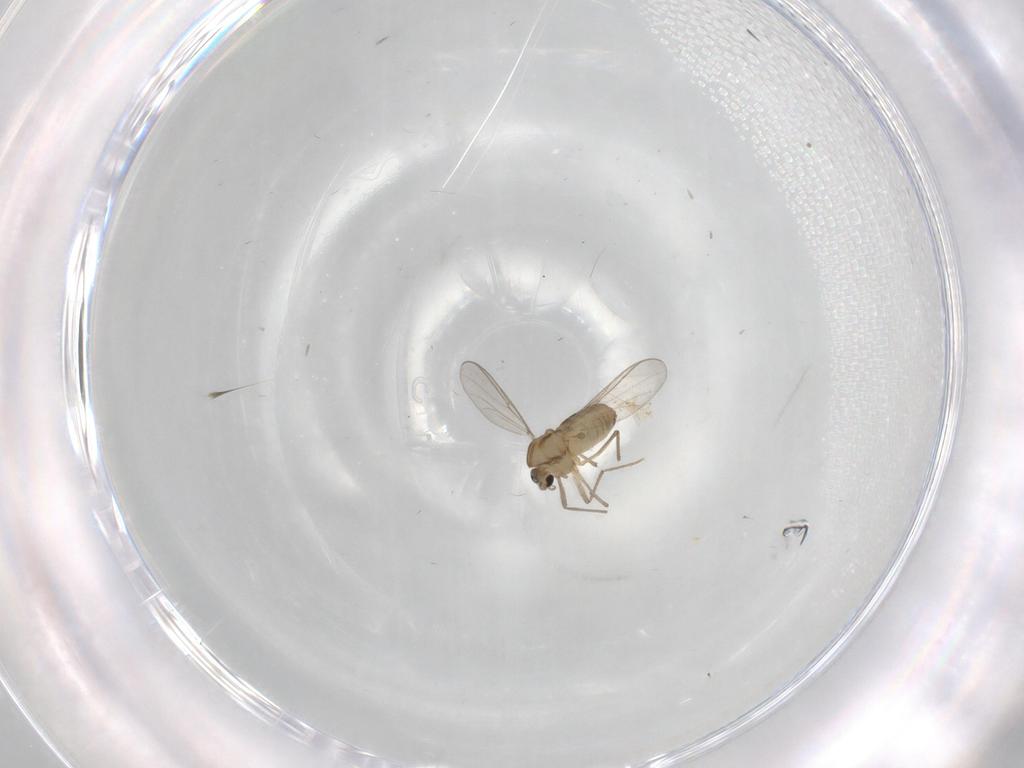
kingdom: Animalia
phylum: Arthropoda
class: Insecta
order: Diptera
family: Chironomidae
